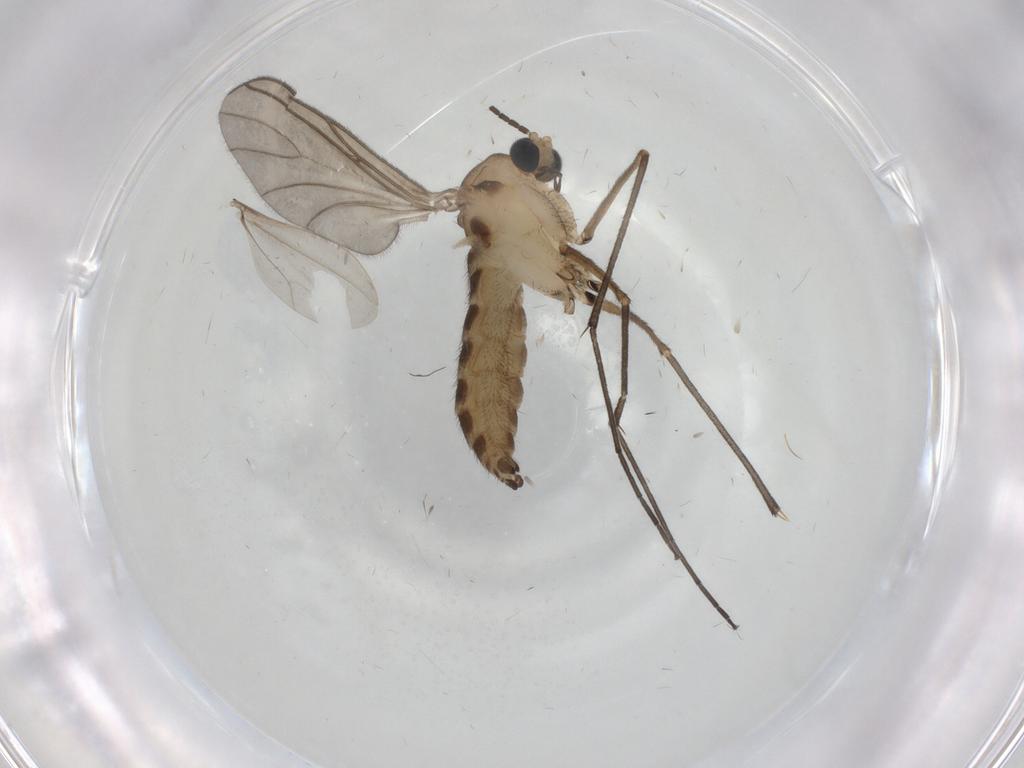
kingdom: Animalia
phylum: Arthropoda
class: Insecta
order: Diptera
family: Sciaridae
